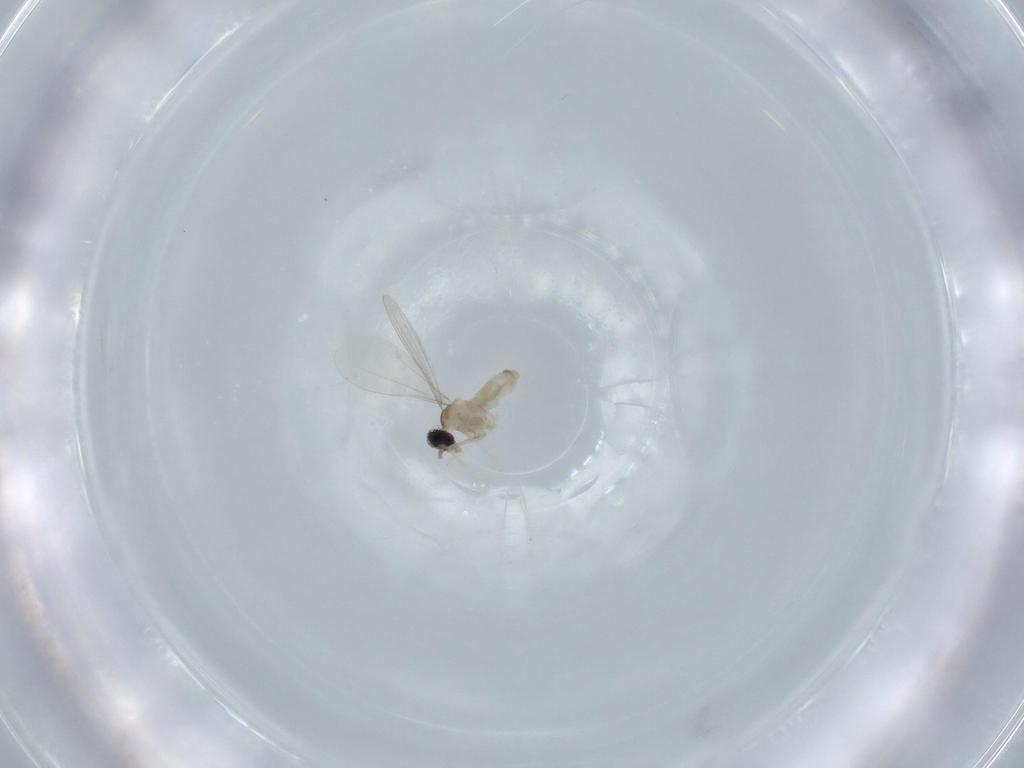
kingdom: Animalia
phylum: Arthropoda
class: Insecta
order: Diptera
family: Cecidomyiidae
